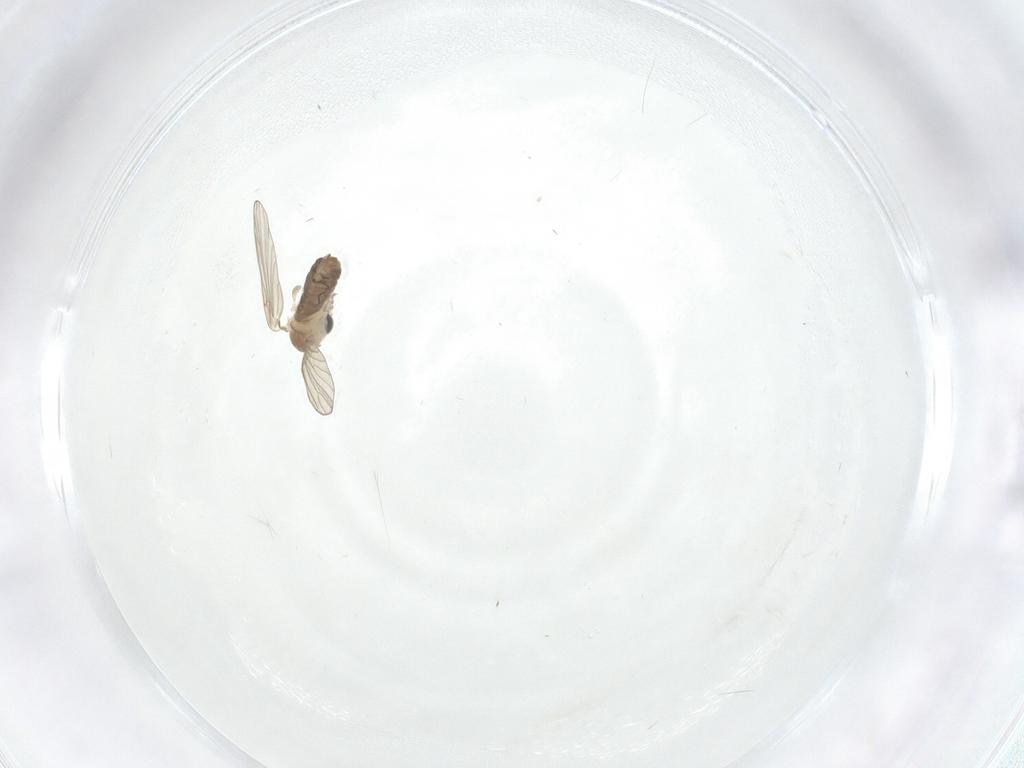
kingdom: Animalia
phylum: Arthropoda
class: Insecta
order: Diptera
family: Psychodidae
